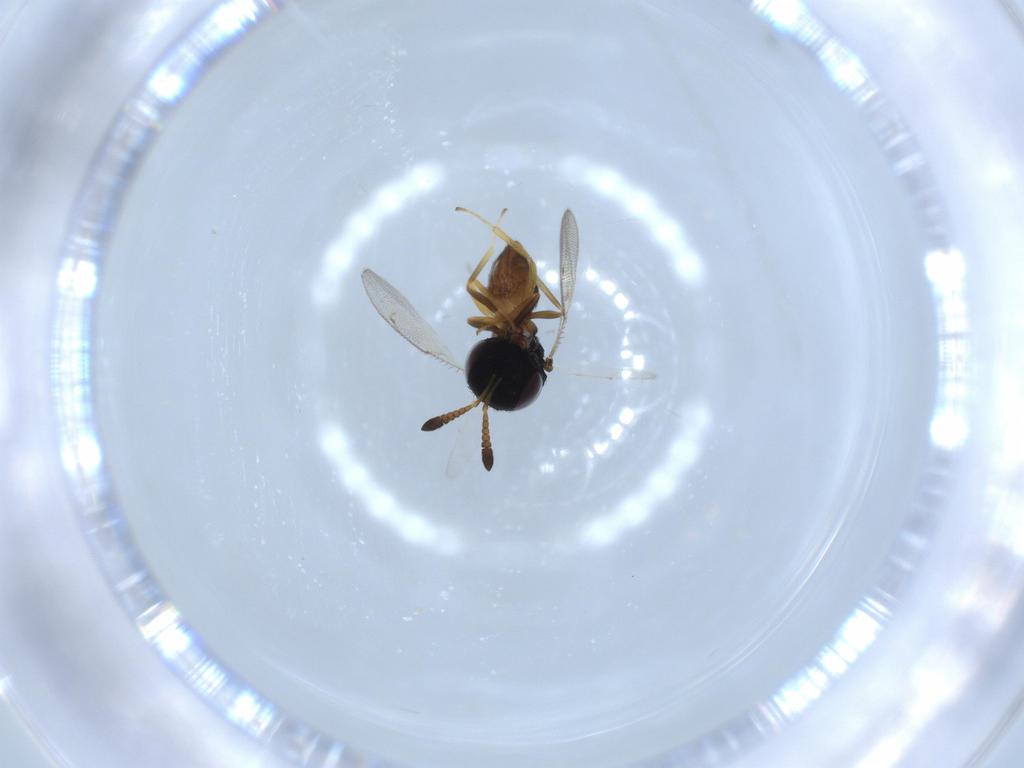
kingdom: Animalia
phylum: Arthropoda
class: Insecta
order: Hymenoptera
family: Pteromalidae
